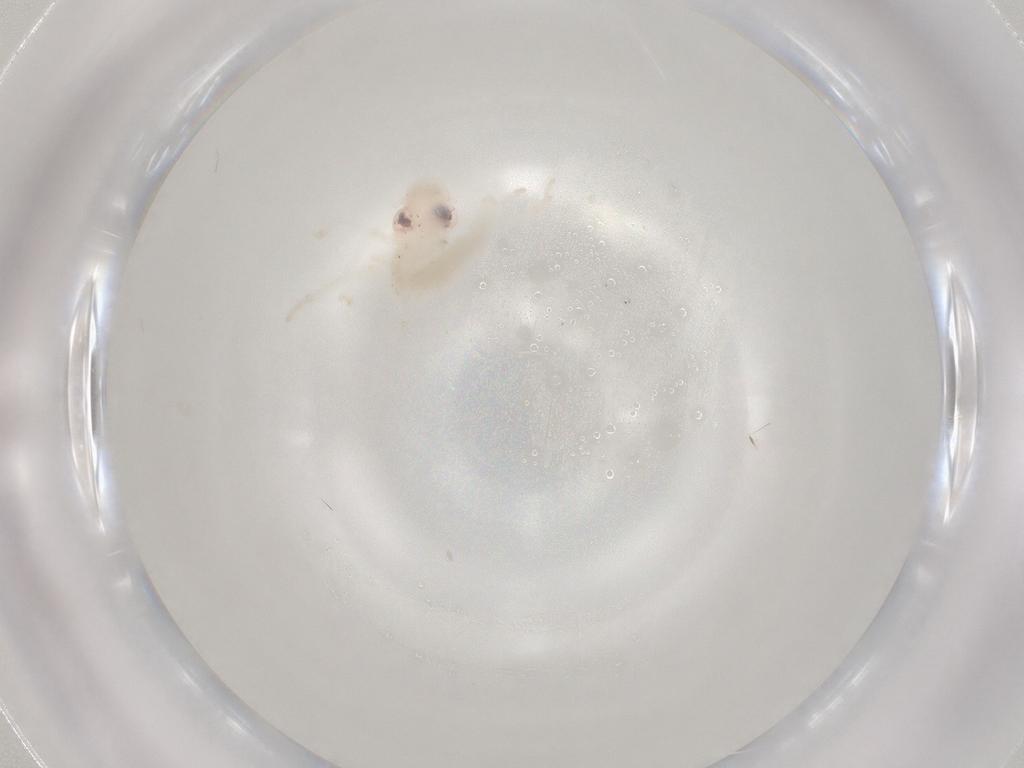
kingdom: Animalia
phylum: Arthropoda
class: Insecta
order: Hemiptera
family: Cicadellidae
